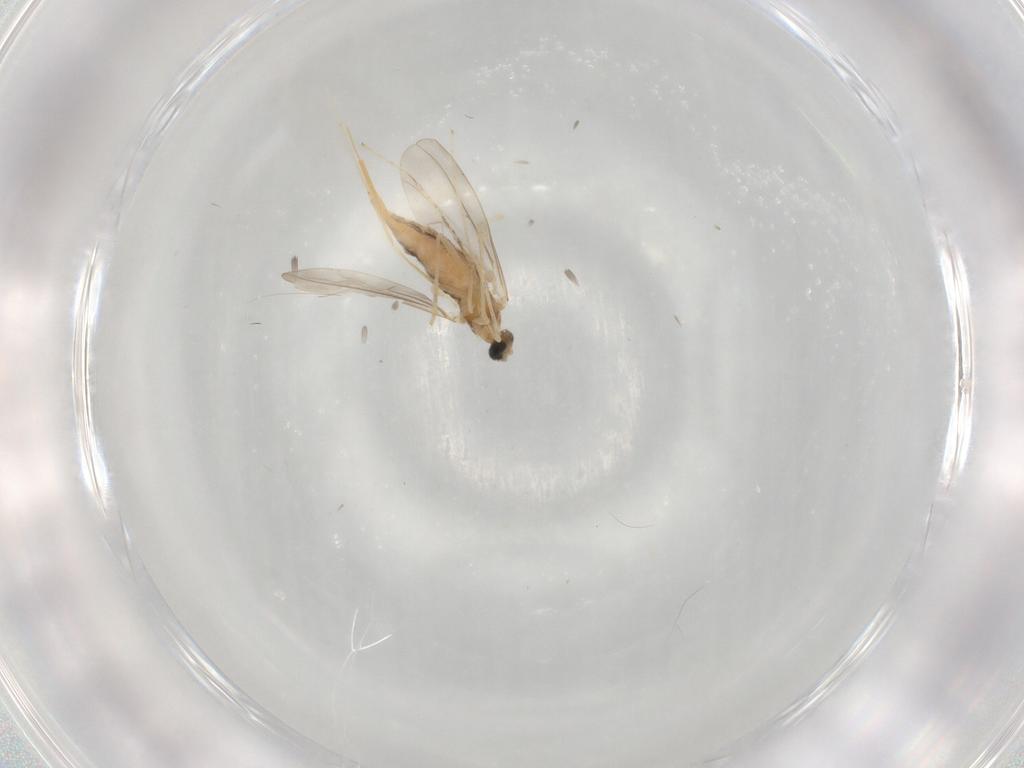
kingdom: Animalia
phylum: Arthropoda
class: Insecta
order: Diptera
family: Cecidomyiidae
